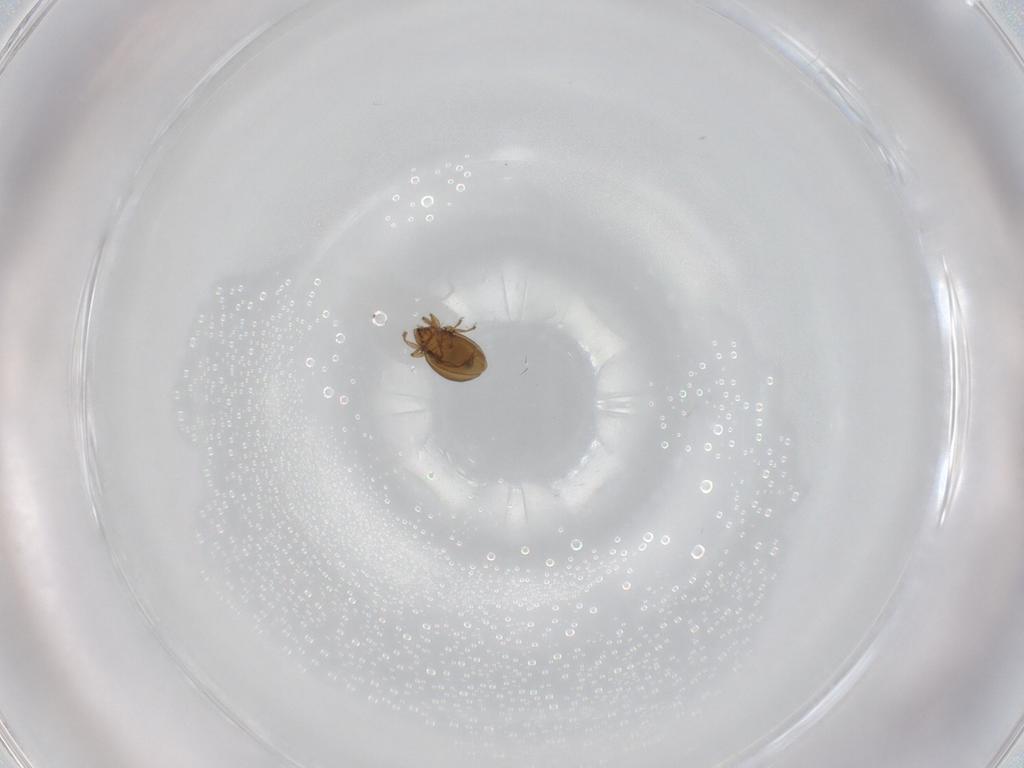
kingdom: Animalia
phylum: Arthropoda
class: Arachnida
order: Trombidiformes
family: Anystidae
